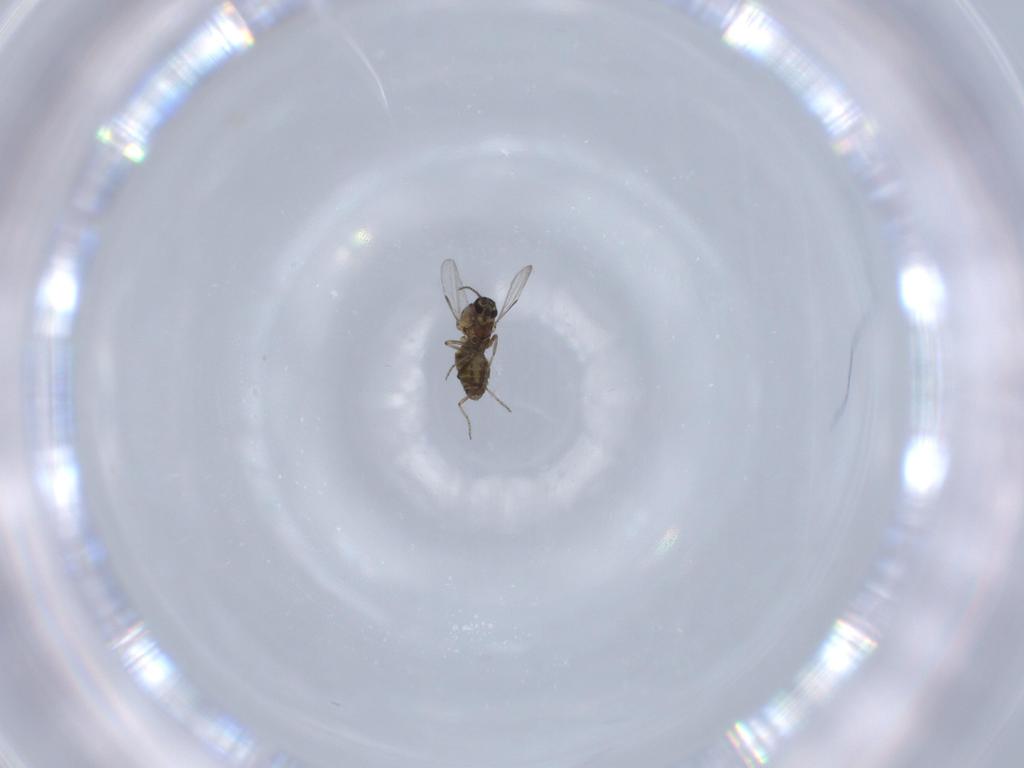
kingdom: Animalia
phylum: Arthropoda
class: Insecta
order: Diptera
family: Ceratopogonidae
